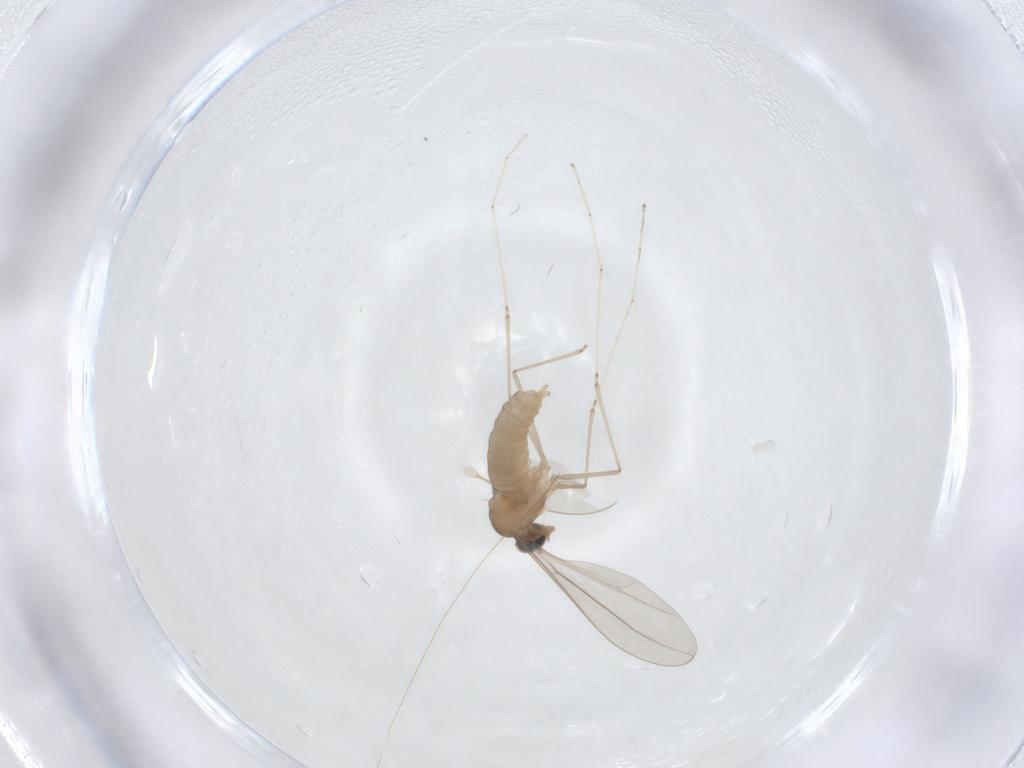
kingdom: Animalia
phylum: Arthropoda
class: Insecta
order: Diptera
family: Cecidomyiidae
